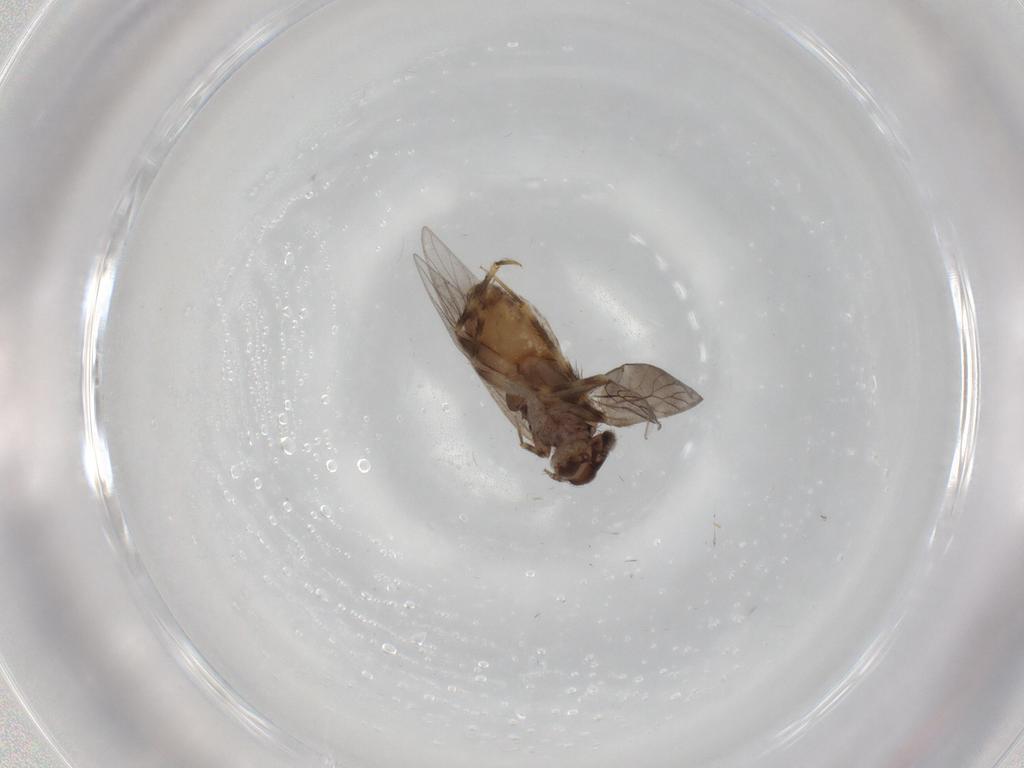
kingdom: Animalia
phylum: Arthropoda
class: Insecta
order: Psocodea
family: Lepidopsocidae
